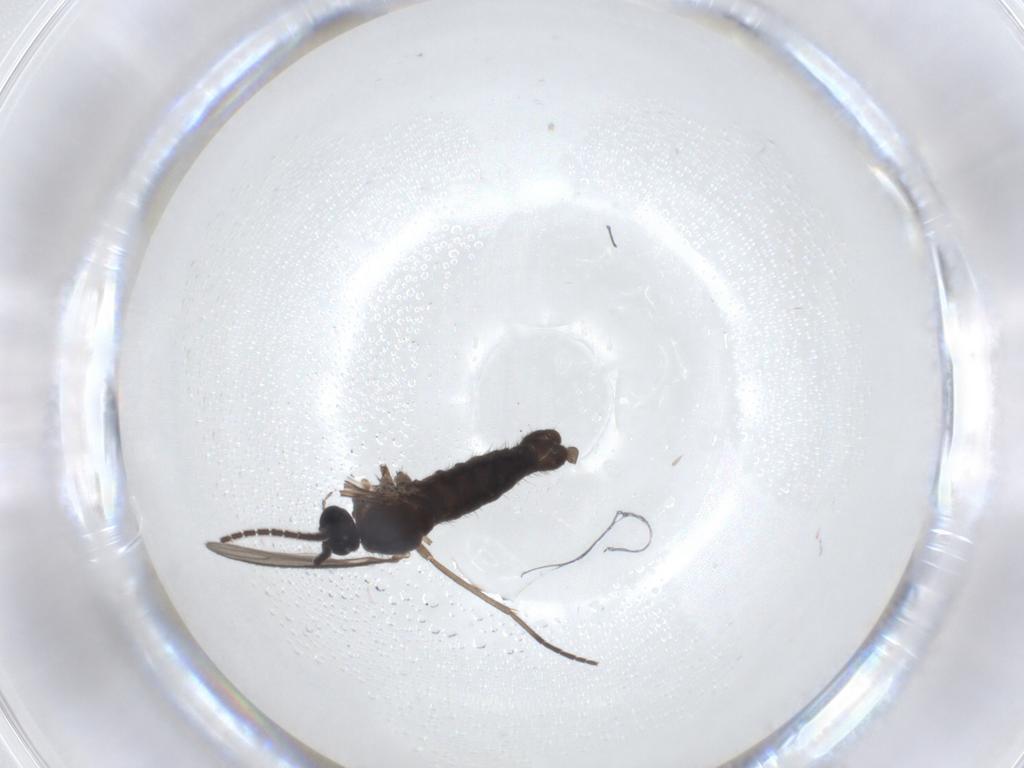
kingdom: Animalia
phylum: Arthropoda
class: Insecta
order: Diptera
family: Sciaridae
